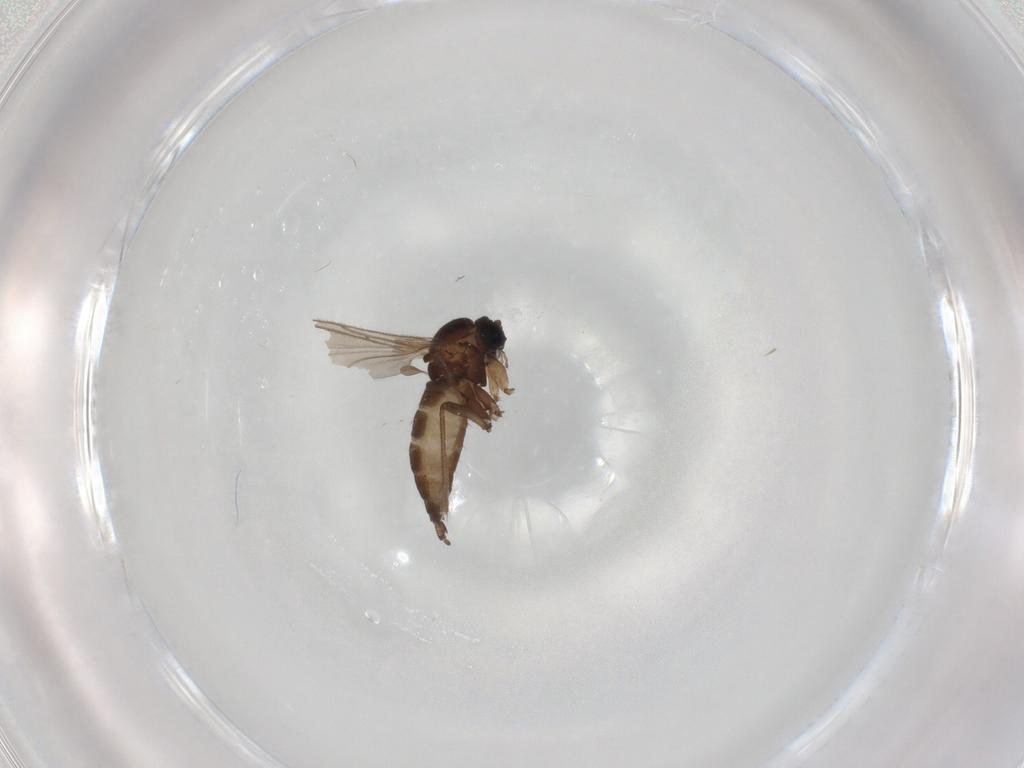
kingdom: Animalia
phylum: Arthropoda
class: Insecta
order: Diptera
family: Sciaridae
